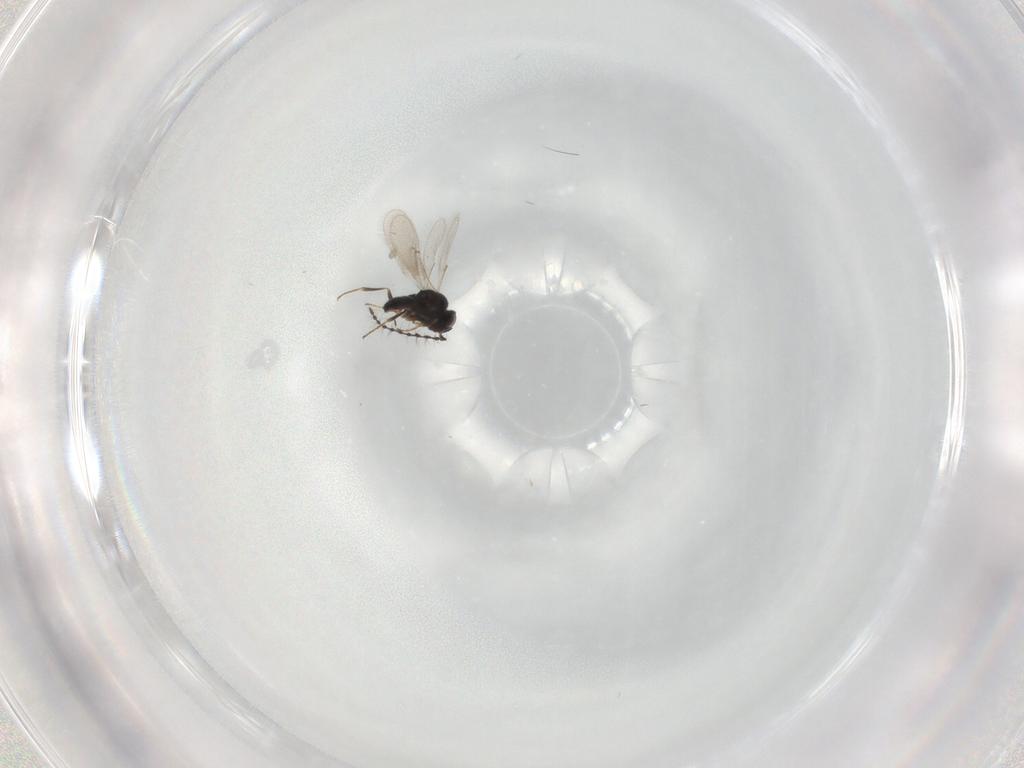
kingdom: Animalia
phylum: Arthropoda
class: Insecta
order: Hymenoptera
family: Scelionidae
